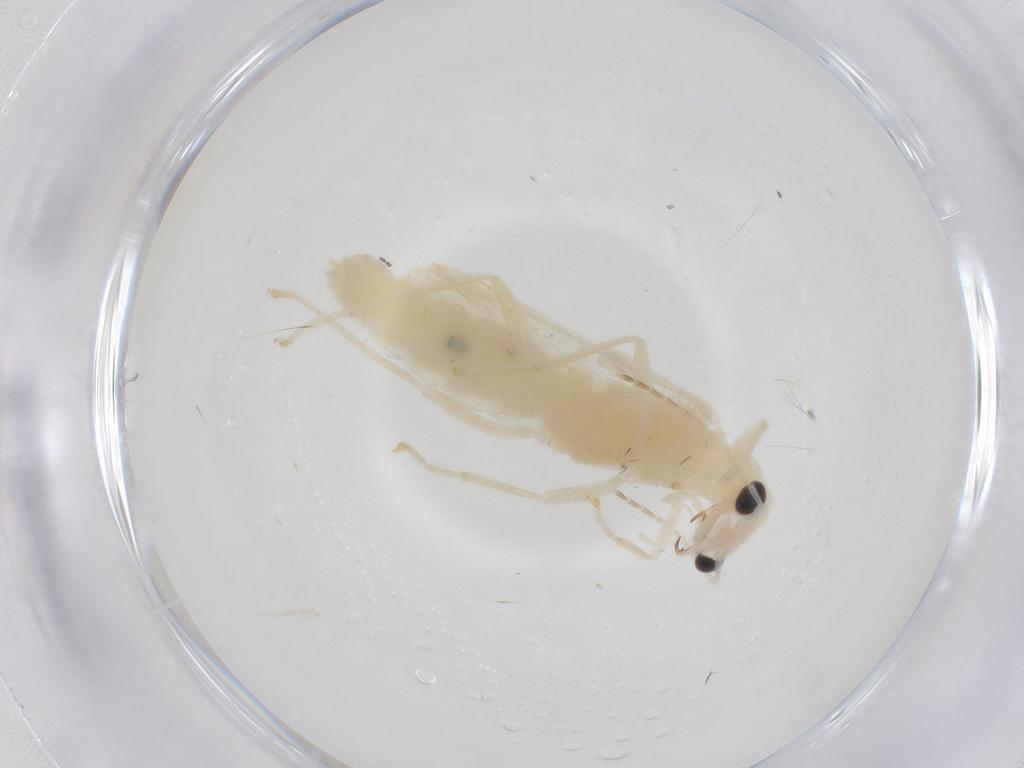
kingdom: Animalia
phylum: Arthropoda
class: Insecta
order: Coleoptera
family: Cantharidae
